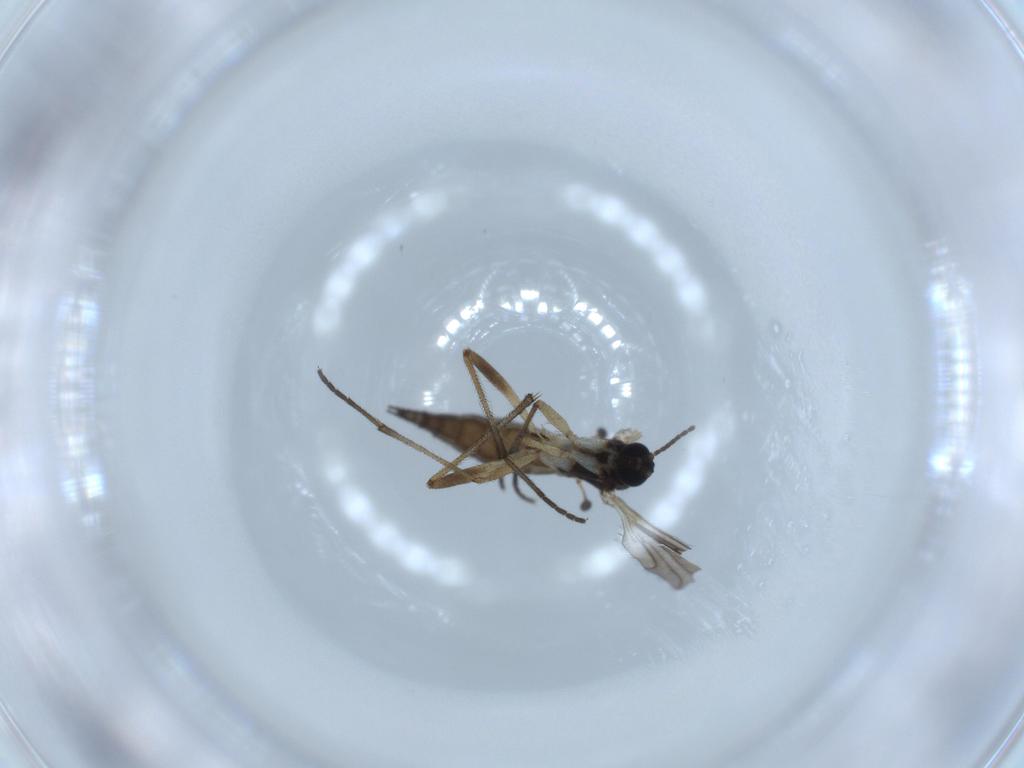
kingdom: Animalia
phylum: Arthropoda
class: Insecta
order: Diptera
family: Sciaridae
